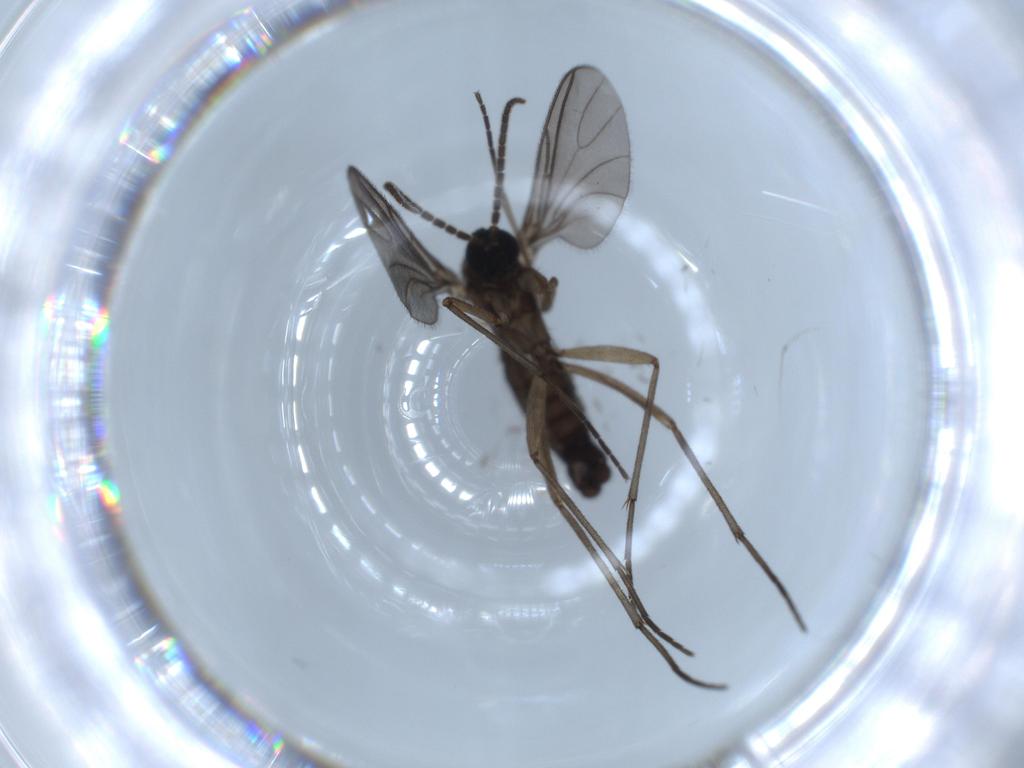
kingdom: Animalia
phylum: Arthropoda
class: Insecta
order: Diptera
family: Sciaridae
